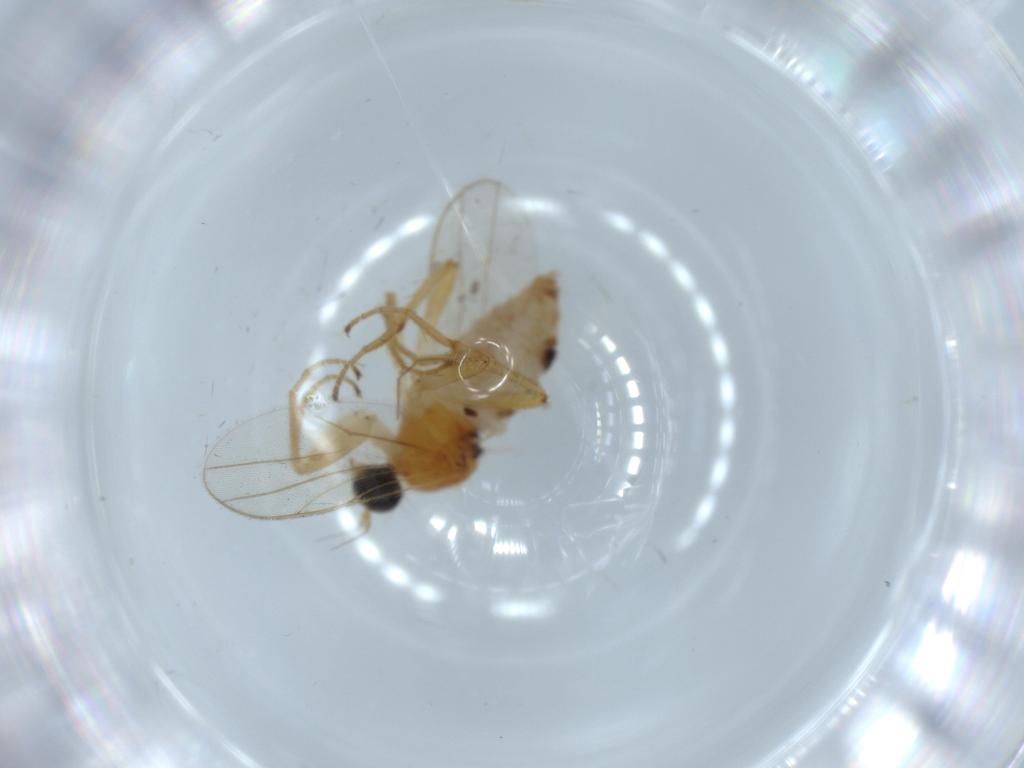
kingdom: Animalia
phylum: Arthropoda
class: Insecta
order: Diptera
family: Hybotidae
